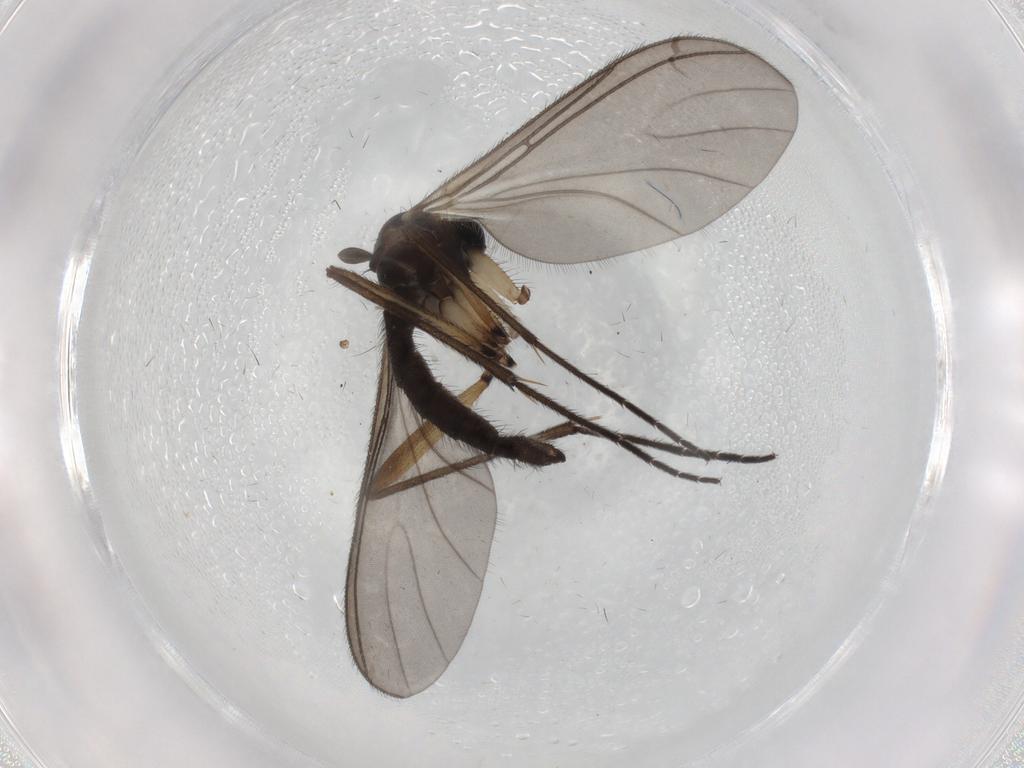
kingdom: Animalia
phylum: Arthropoda
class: Insecta
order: Diptera
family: Sciaridae
